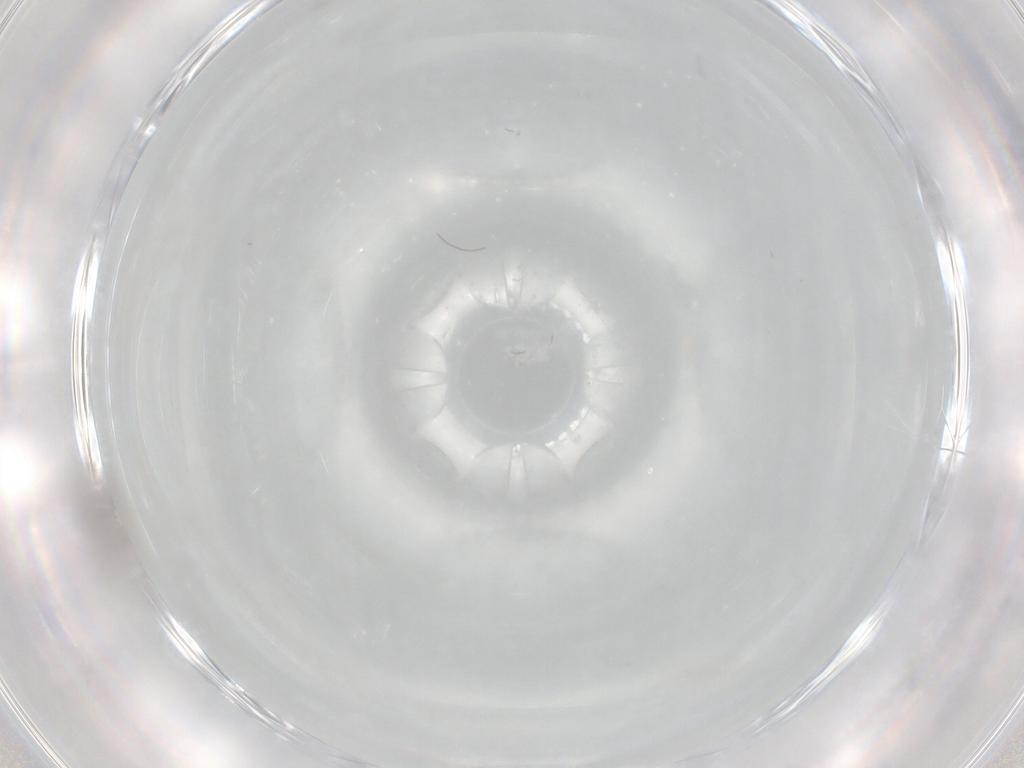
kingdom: Animalia
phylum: Arthropoda
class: Insecta
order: Diptera
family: Cecidomyiidae
